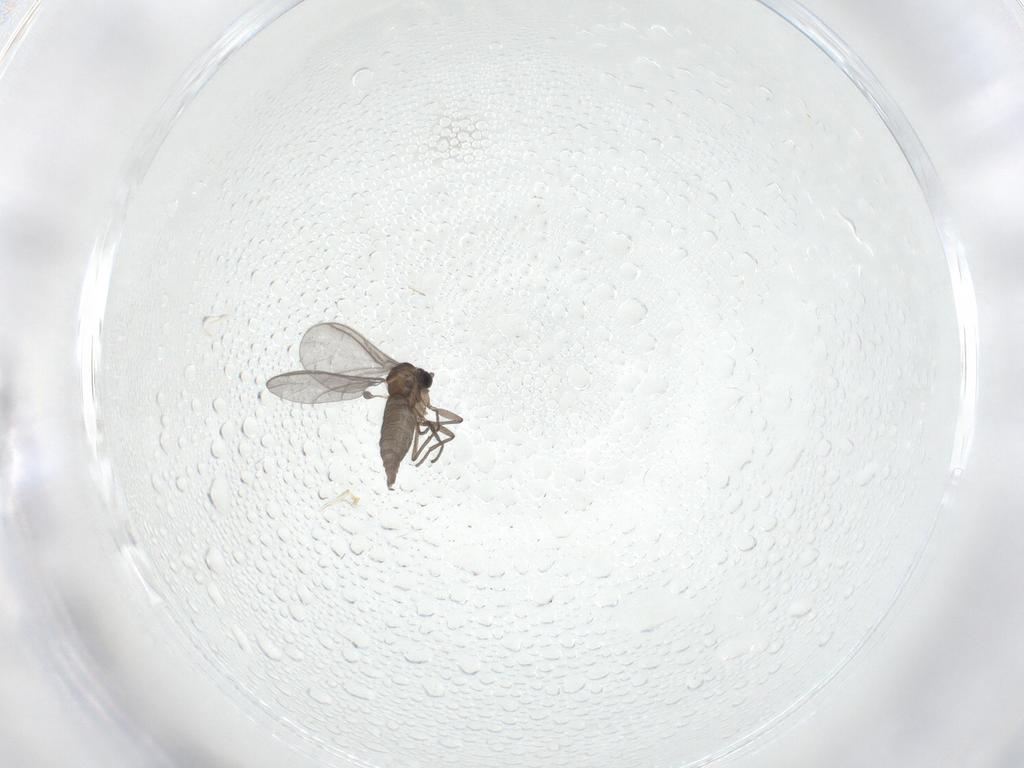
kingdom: Animalia
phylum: Arthropoda
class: Insecta
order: Diptera
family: Sciaridae
